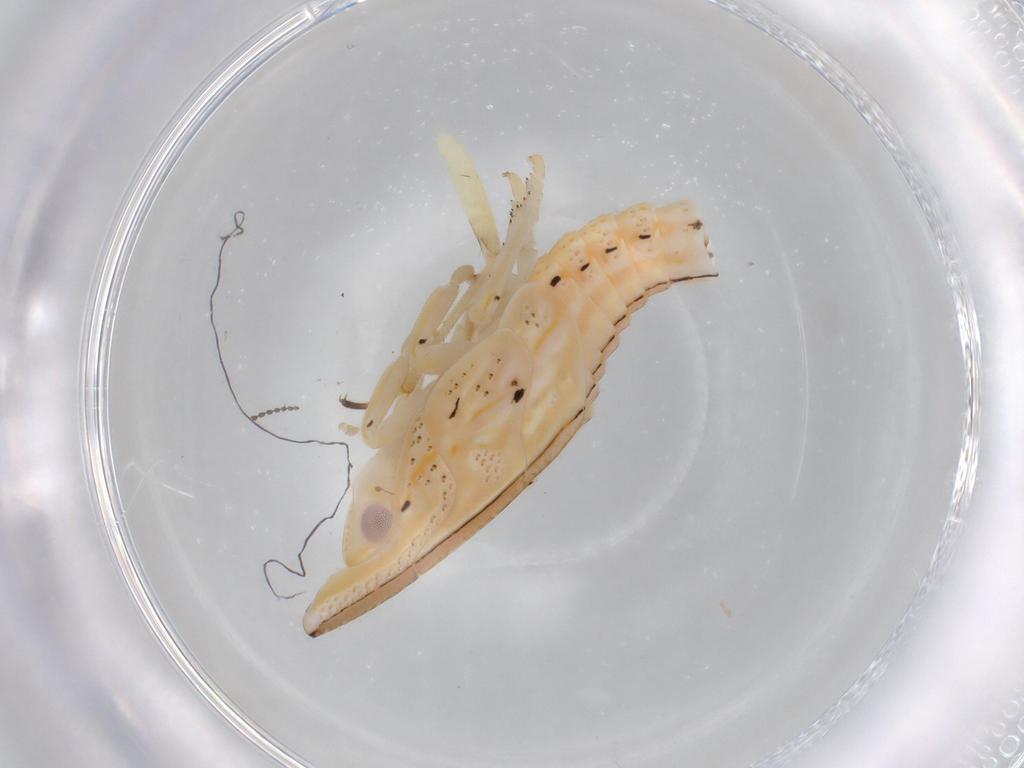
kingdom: Animalia
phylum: Arthropoda
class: Insecta
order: Hemiptera
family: Flatidae
